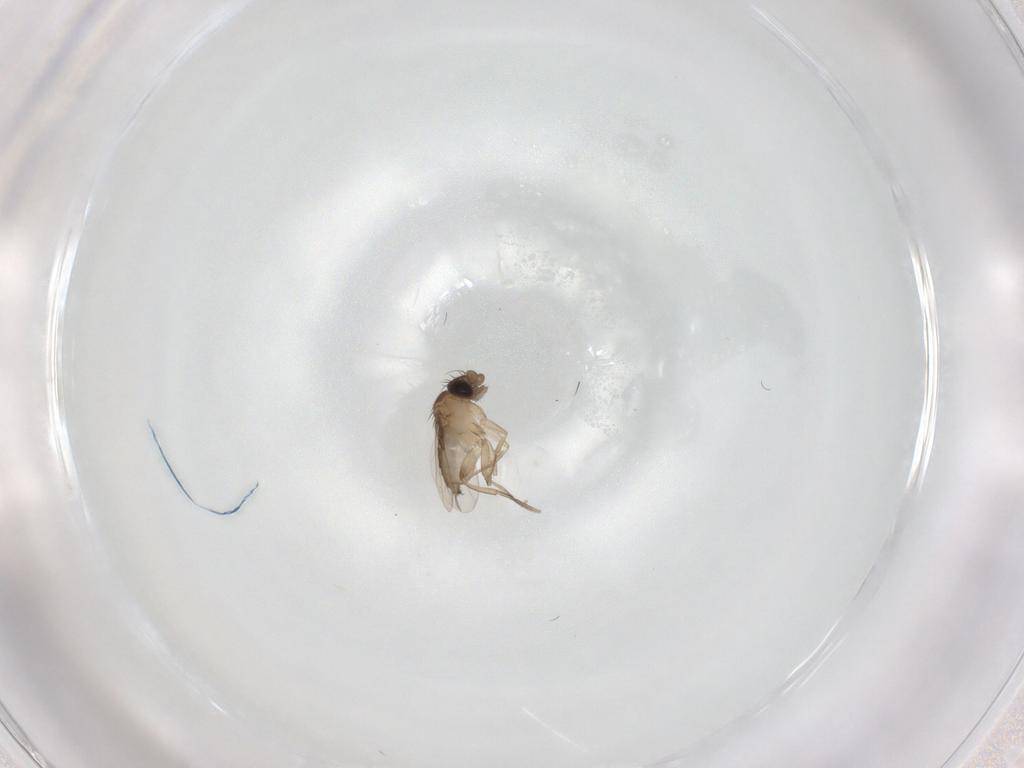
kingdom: Animalia
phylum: Arthropoda
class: Insecta
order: Diptera
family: Phoridae
